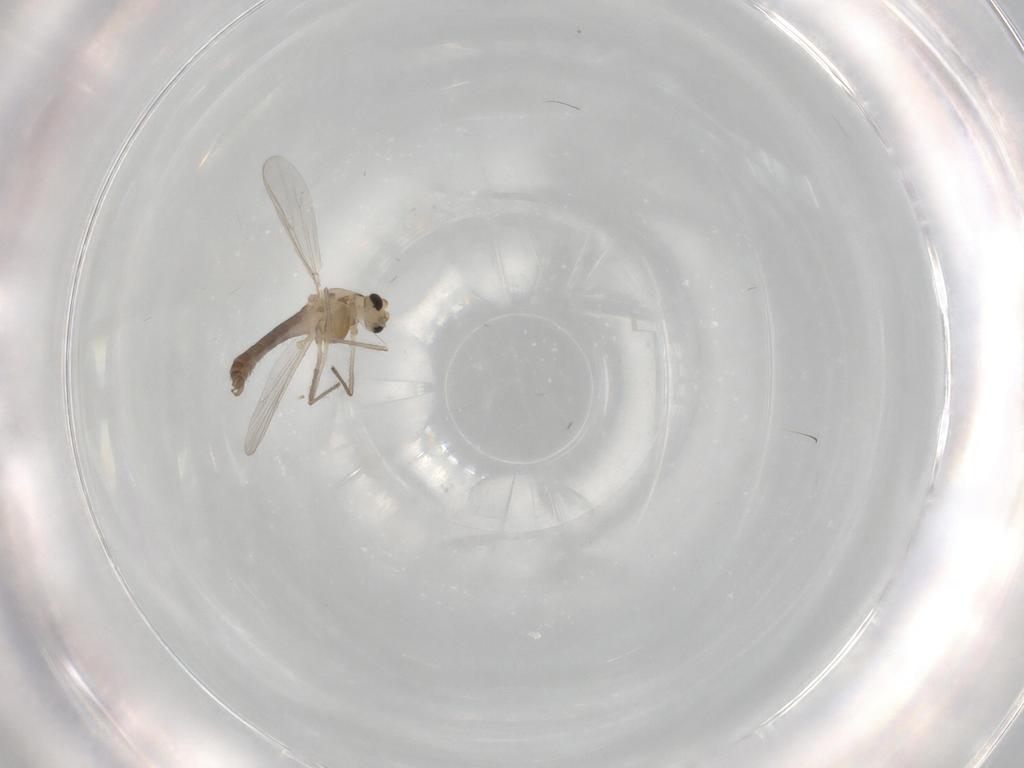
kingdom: Animalia
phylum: Arthropoda
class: Insecta
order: Diptera
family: Chironomidae
